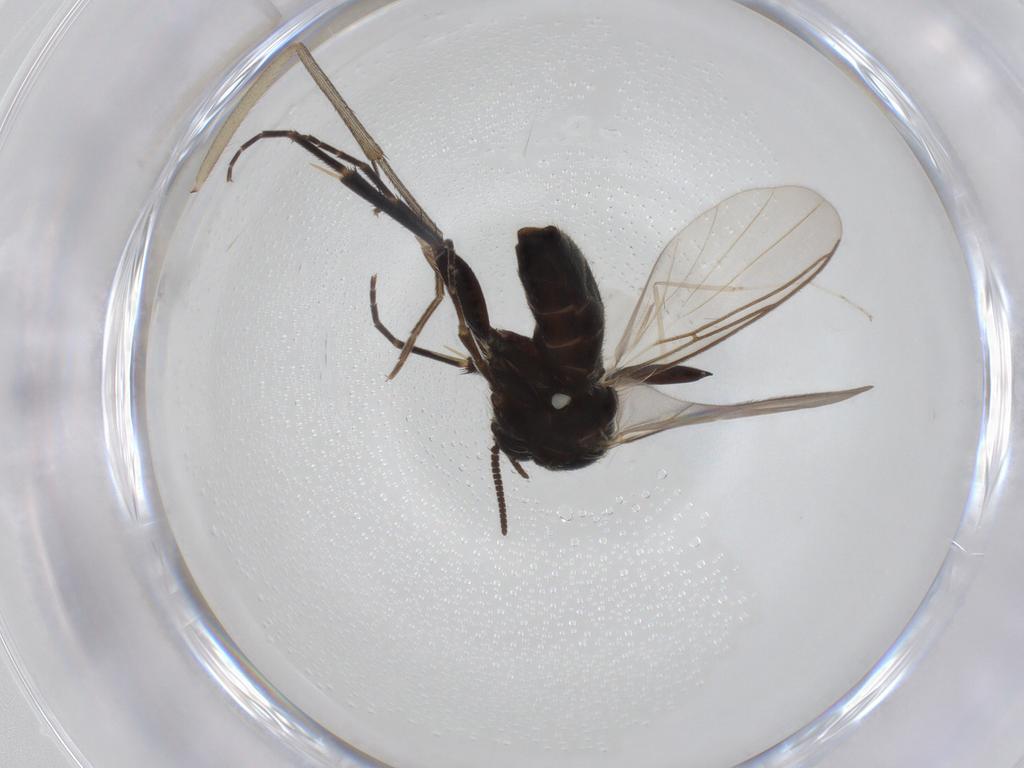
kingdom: Animalia
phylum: Arthropoda
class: Insecta
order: Diptera
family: Mycetophilidae
